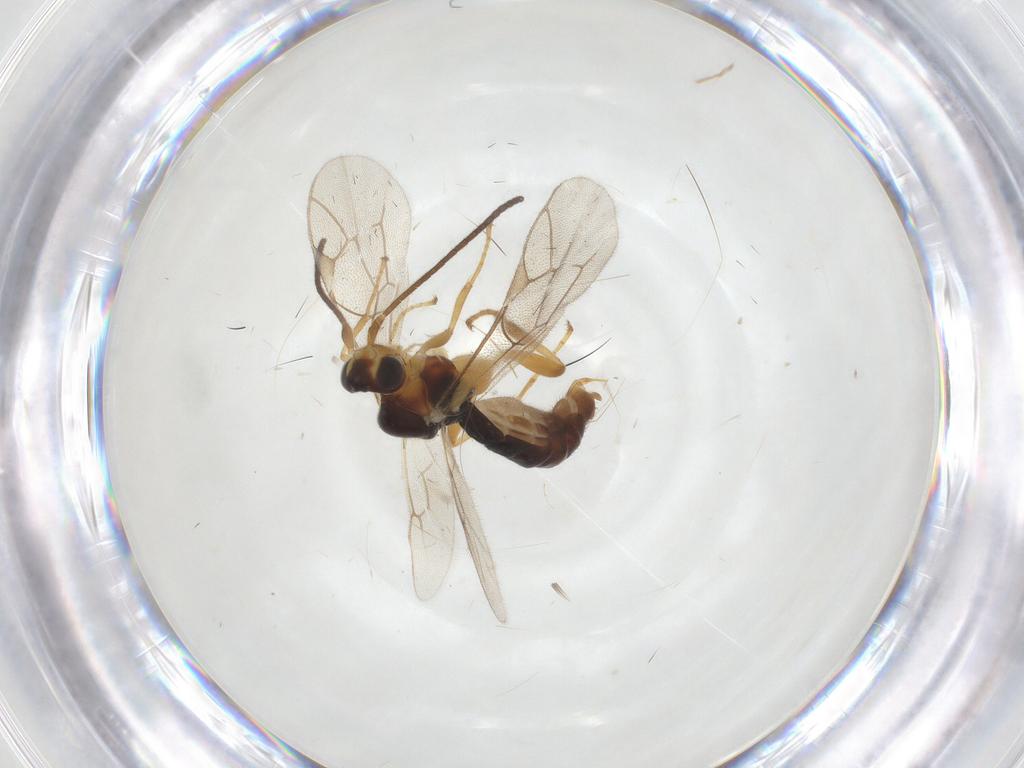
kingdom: Animalia
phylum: Arthropoda
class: Insecta
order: Hymenoptera
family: Ichneumonidae
